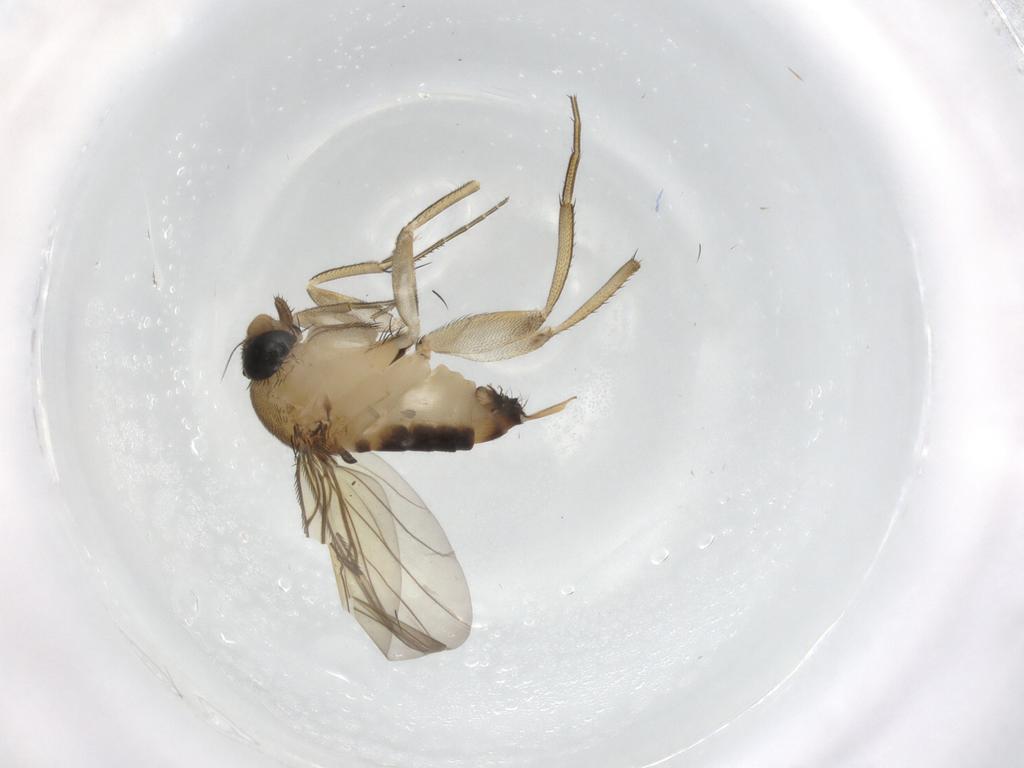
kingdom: Animalia
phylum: Arthropoda
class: Insecta
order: Diptera
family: Phoridae
